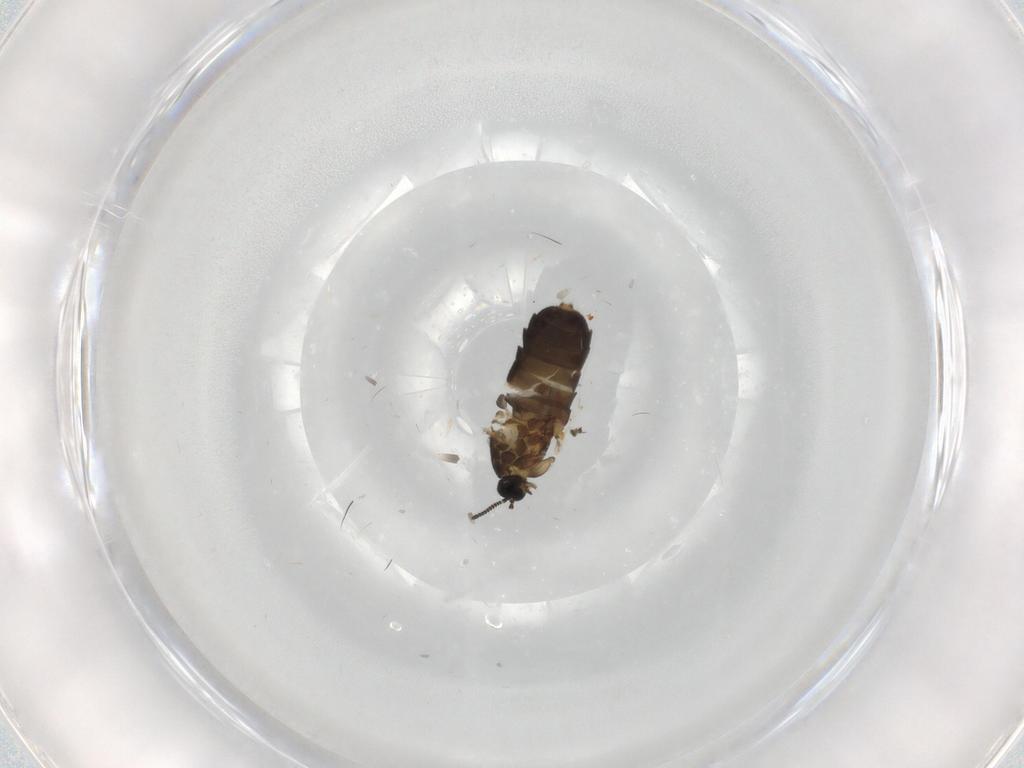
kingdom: Animalia
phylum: Arthropoda
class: Insecta
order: Diptera
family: Scatopsidae
